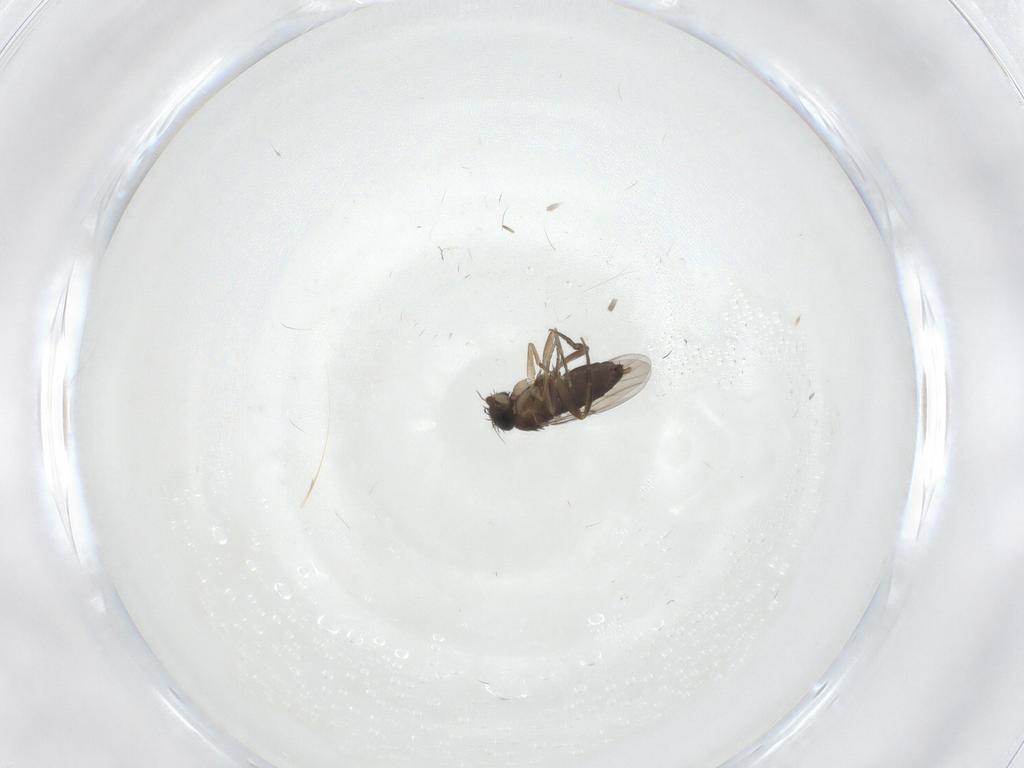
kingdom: Animalia
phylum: Arthropoda
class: Insecta
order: Diptera
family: Phoridae
